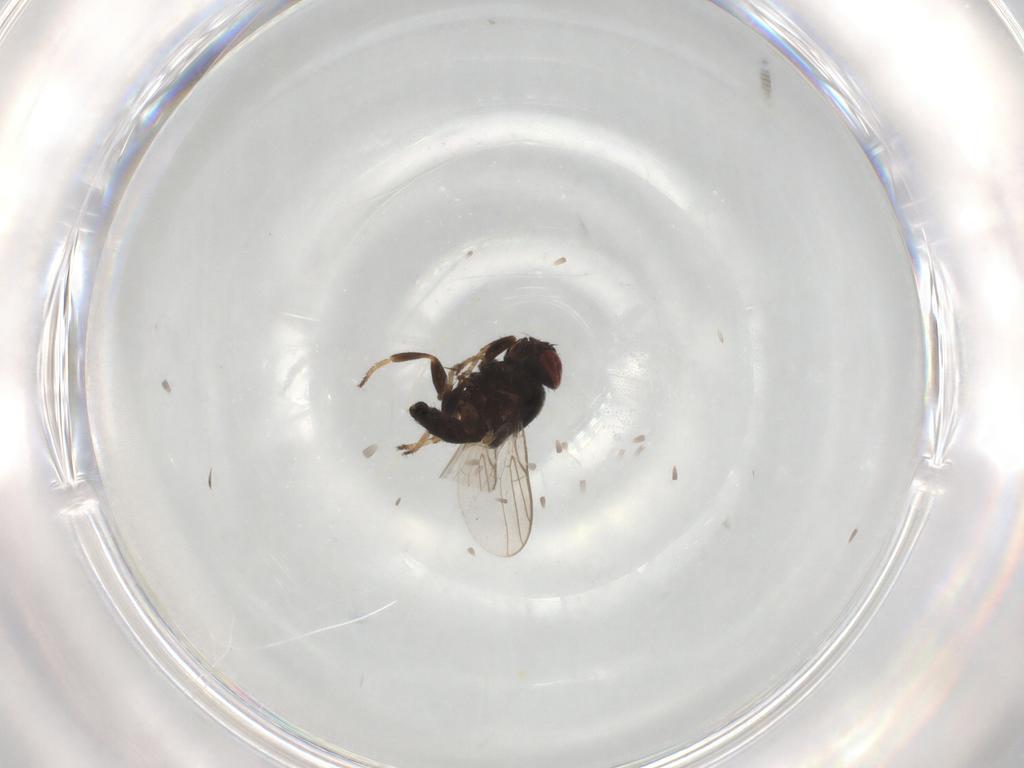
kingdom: Animalia
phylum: Arthropoda
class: Insecta
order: Diptera
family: Chloropidae
